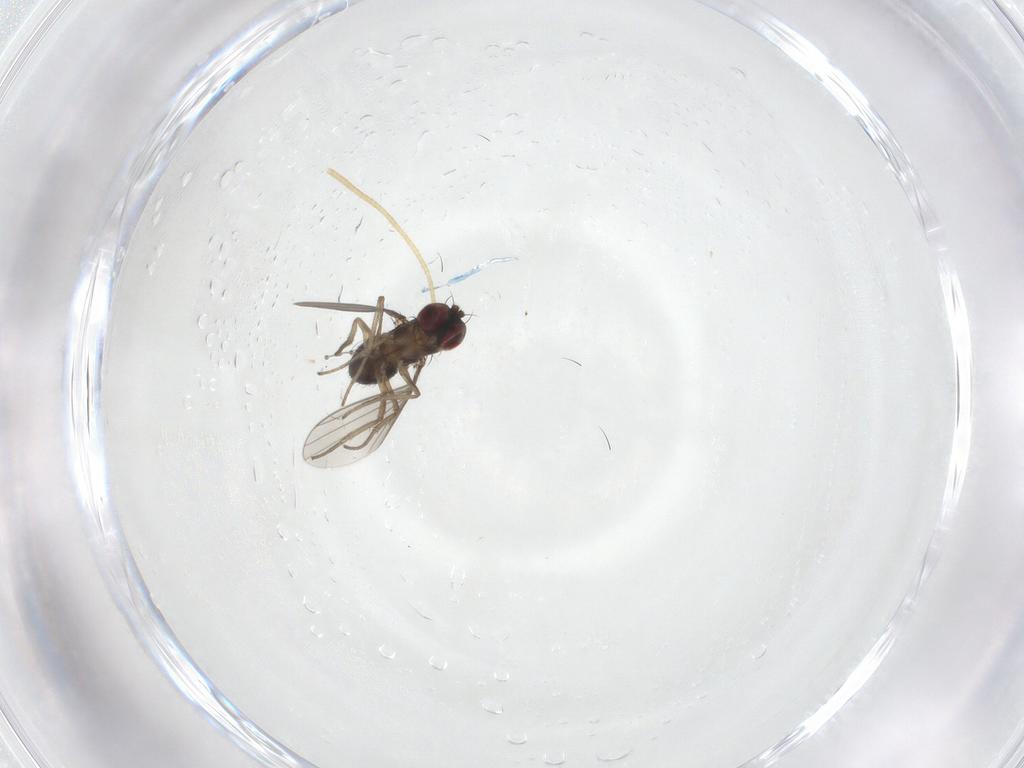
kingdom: Animalia
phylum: Arthropoda
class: Insecta
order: Diptera
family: Dolichopodidae
